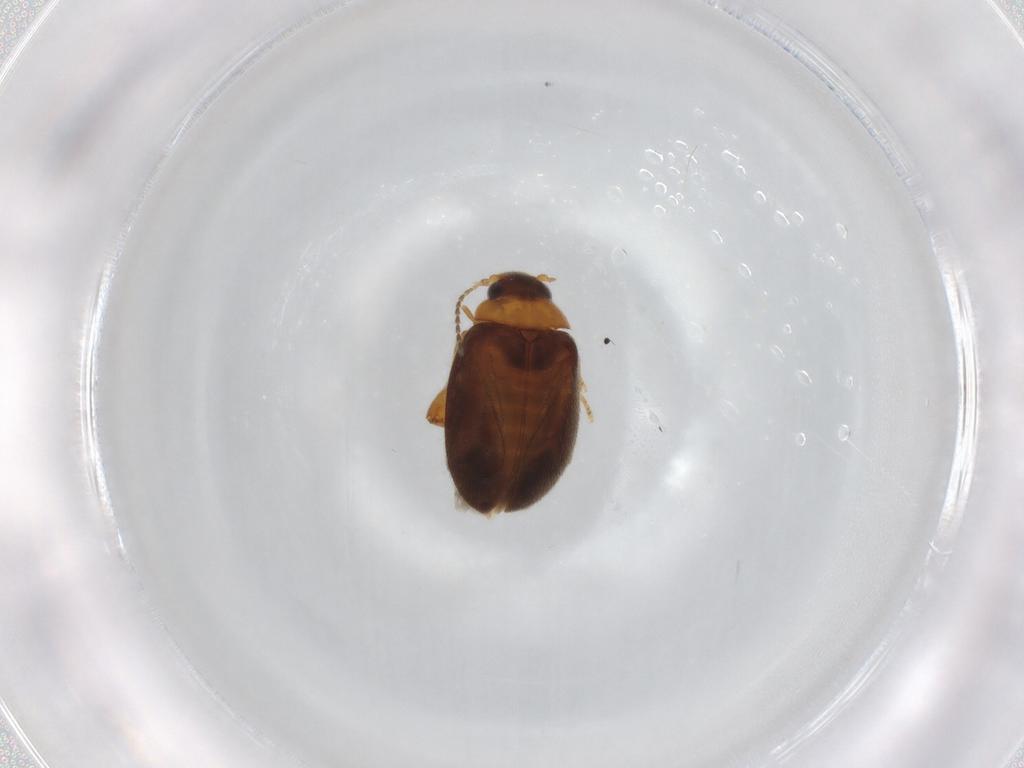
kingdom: Animalia
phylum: Arthropoda
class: Insecta
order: Coleoptera
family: Scirtidae
